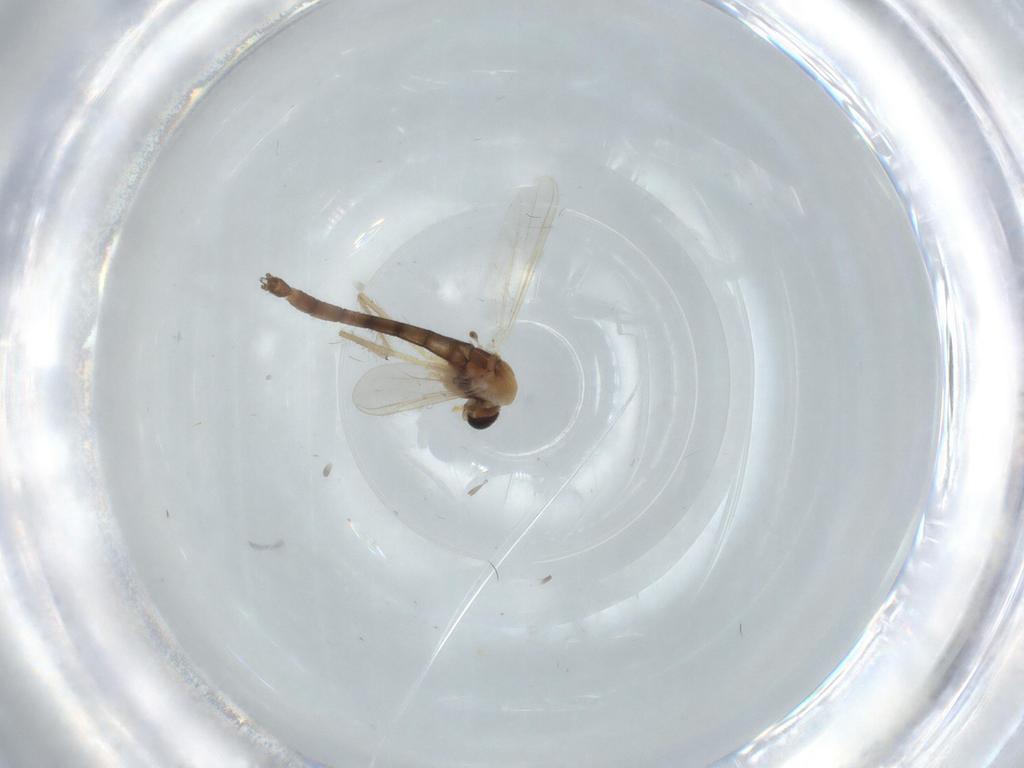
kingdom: Animalia
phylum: Arthropoda
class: Insecta
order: Diptera
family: Chironomidae
